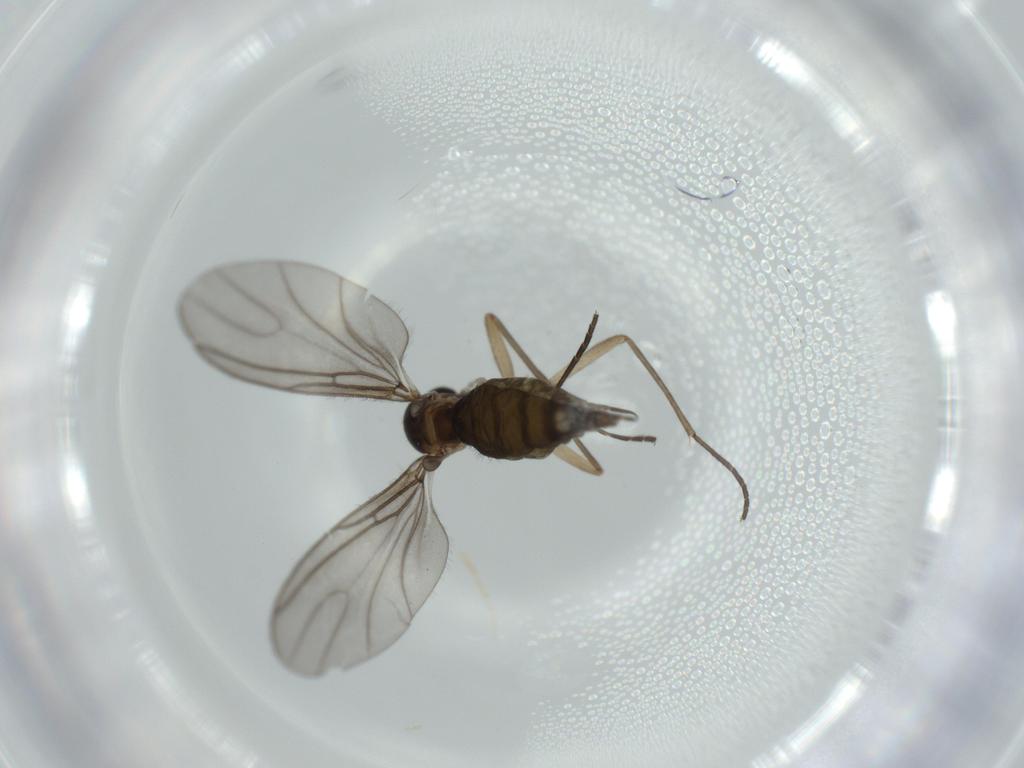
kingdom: Animalia
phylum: Arthropoda
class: Insecta
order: Diptera
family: Sciaridae
